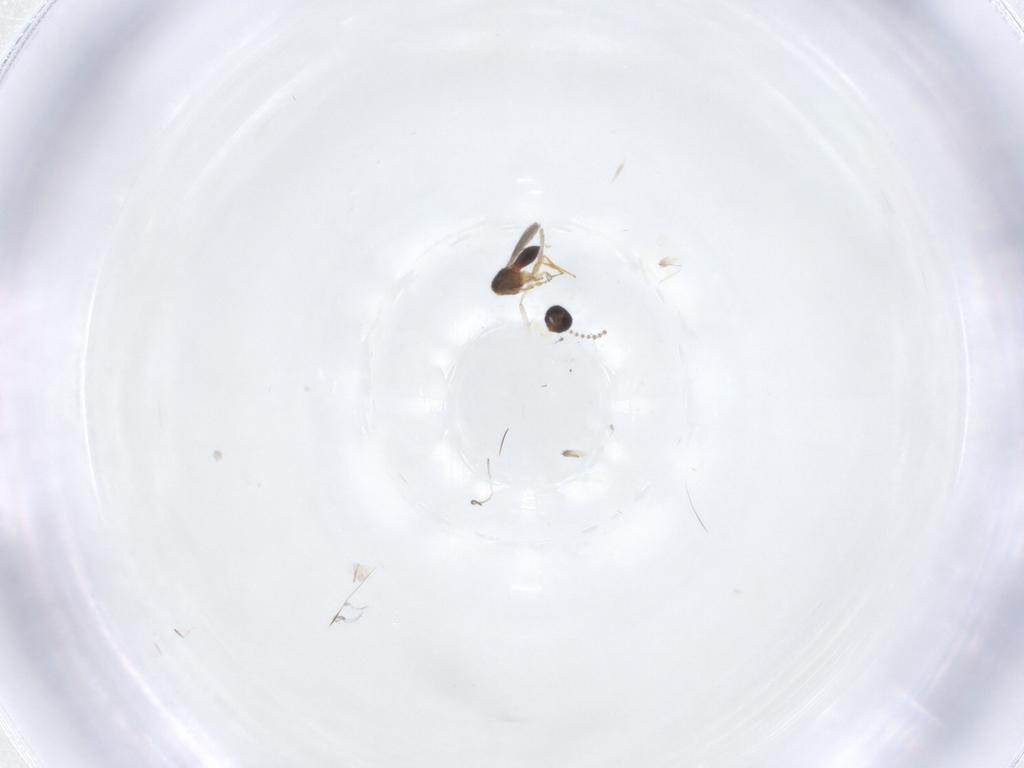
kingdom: Animalia
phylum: Arthropoda
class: Insecta
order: Hymenoptera
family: Scelionidae
